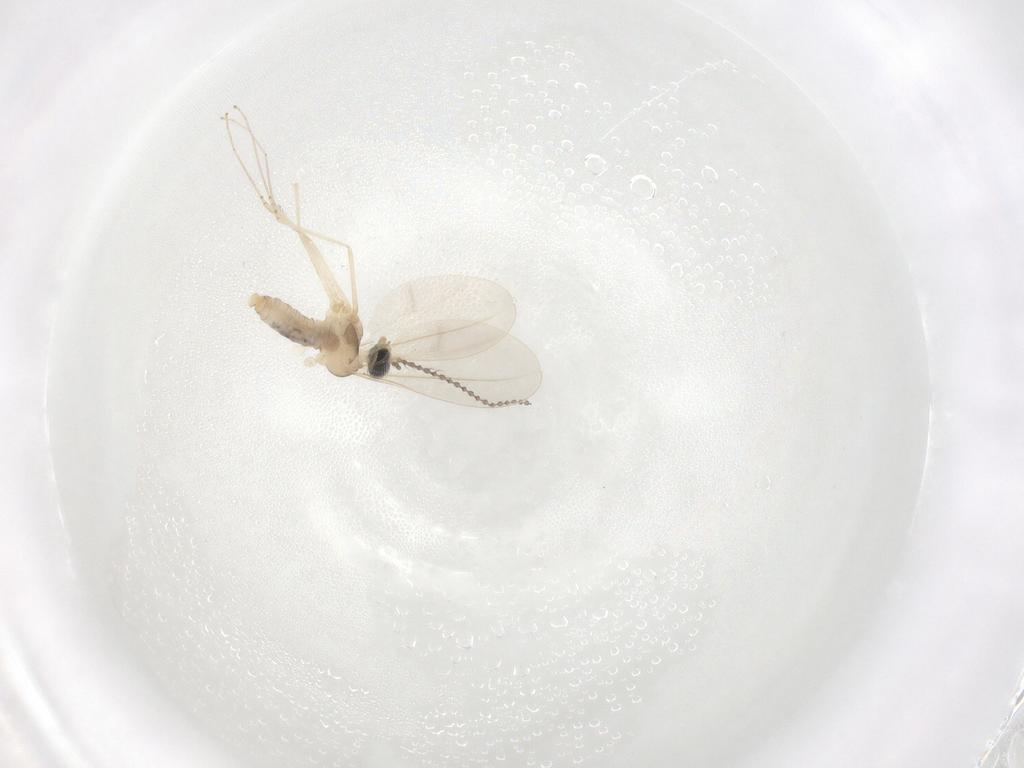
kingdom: Animalia
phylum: Arthropoda
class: Insecta
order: Diptera
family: Cecidomyiidae
